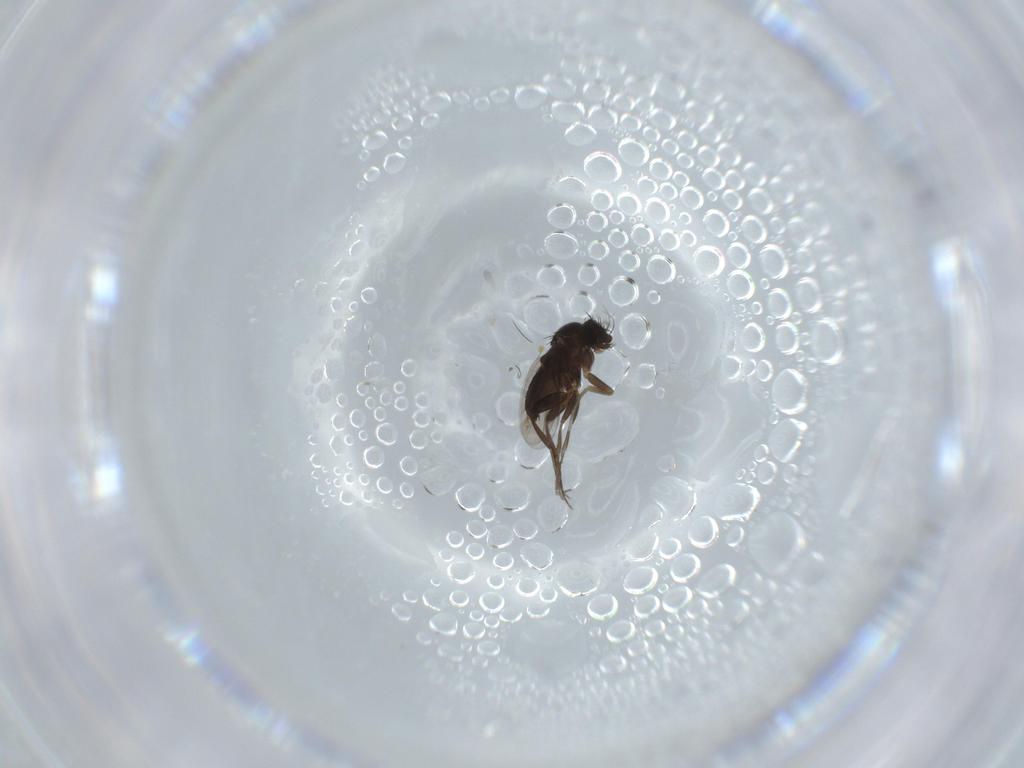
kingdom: Animalia
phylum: Arthropoda
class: Insecta
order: Diptera
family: Phoridae
